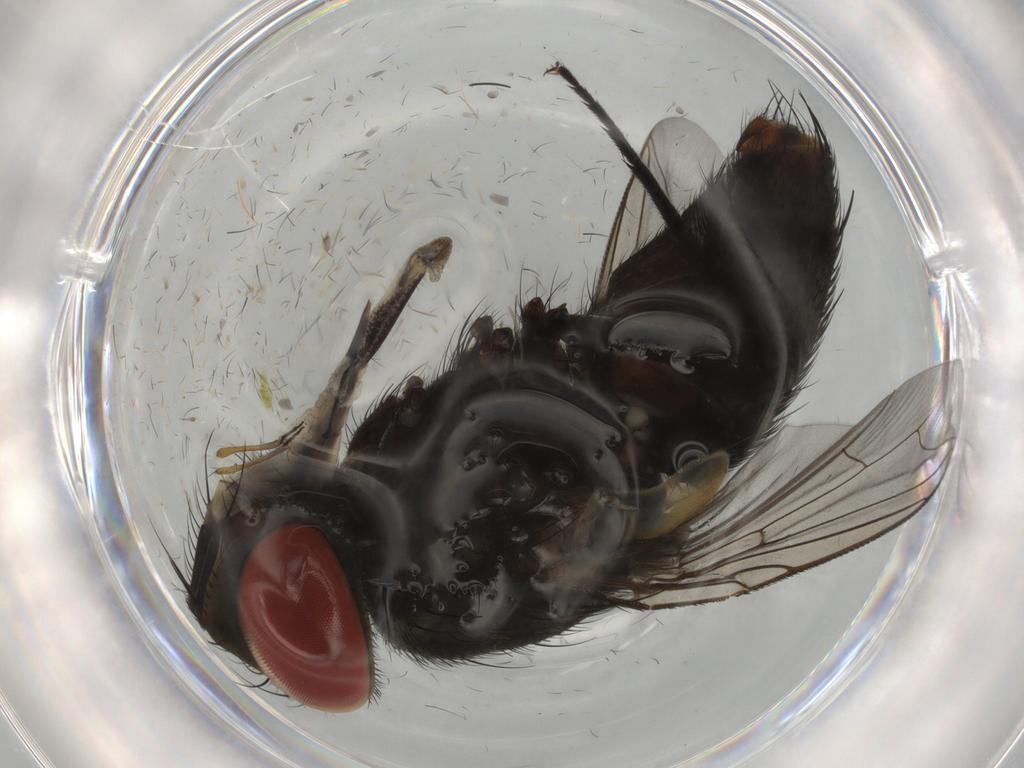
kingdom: Animalia
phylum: Arthropoda
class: Insecta
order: Diptera
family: Sarcophagidae
